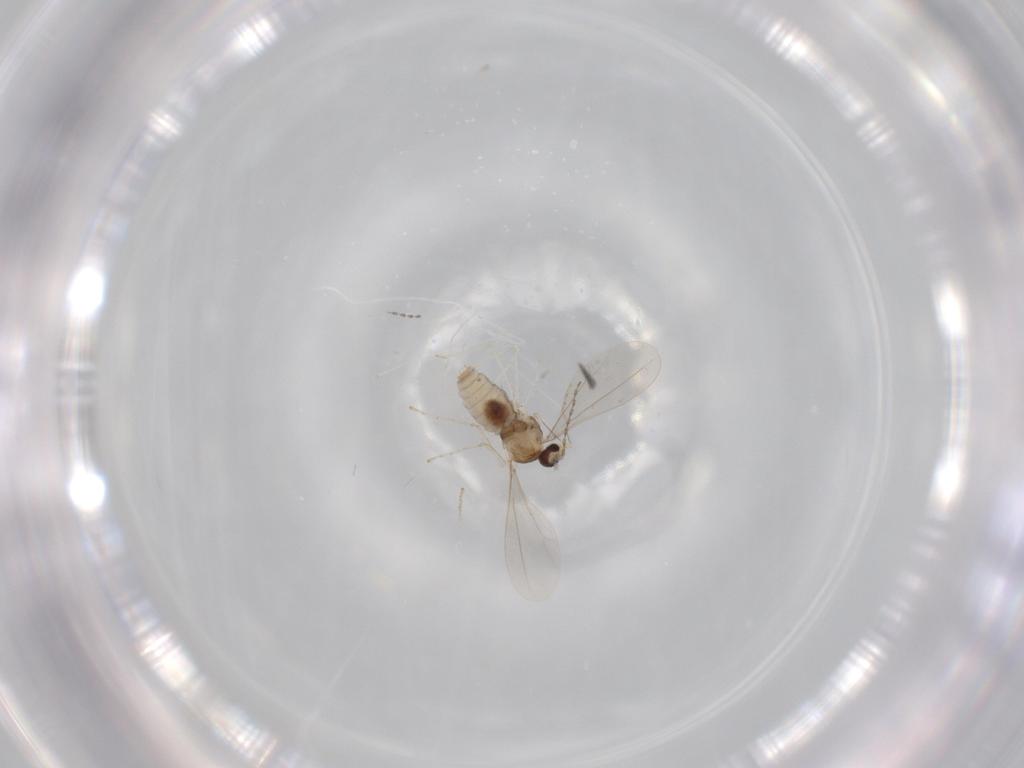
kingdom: Animalia
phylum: Arthropoda
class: Insecta
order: Diptera
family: Cecidomyiidae
